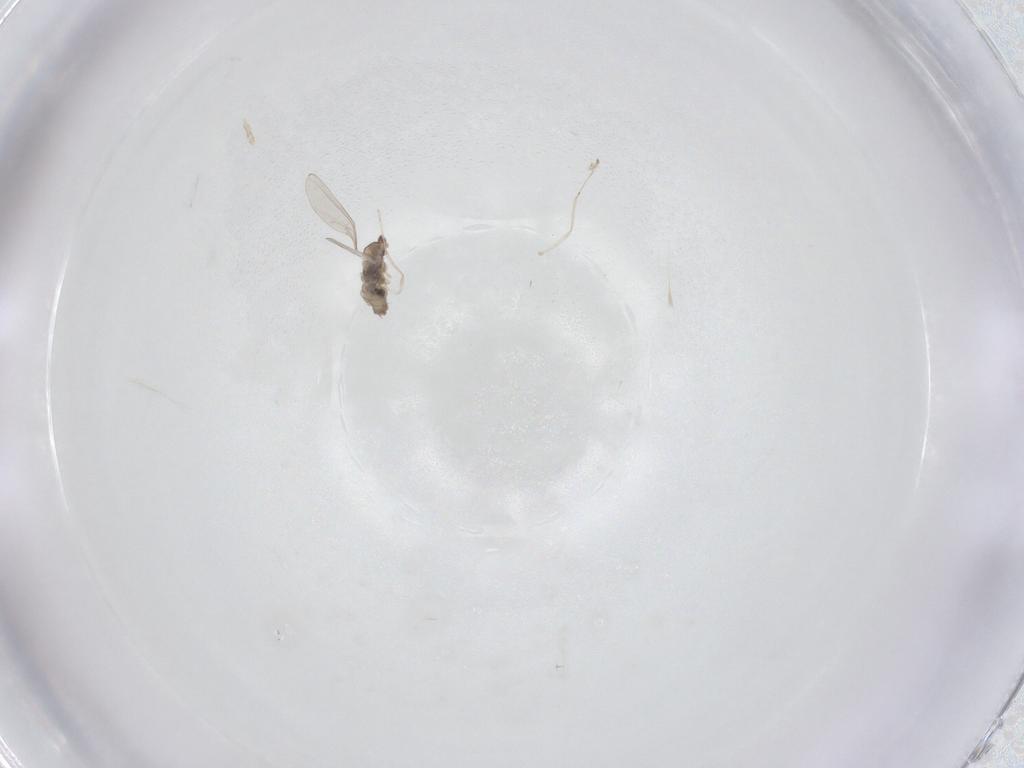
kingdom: Animalia
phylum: Arthropoda
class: Insecta
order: Diptera
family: Cecidomyiidae
